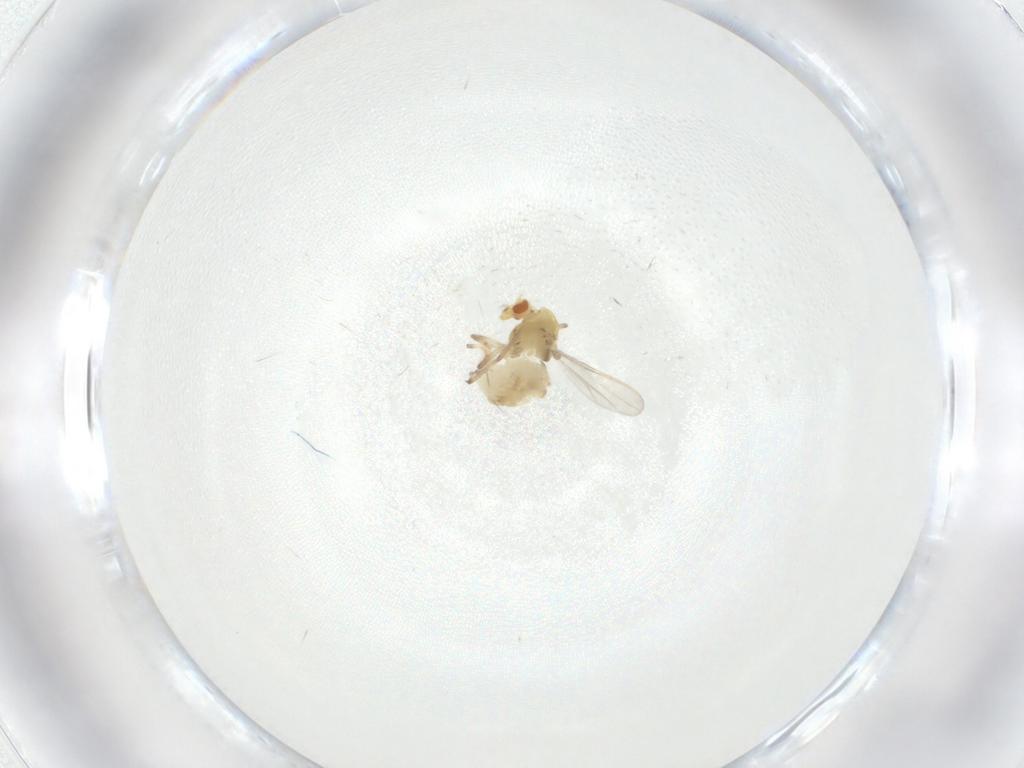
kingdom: Animalia
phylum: Arthropoda
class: Insecta
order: Diptera
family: Chironomidae
